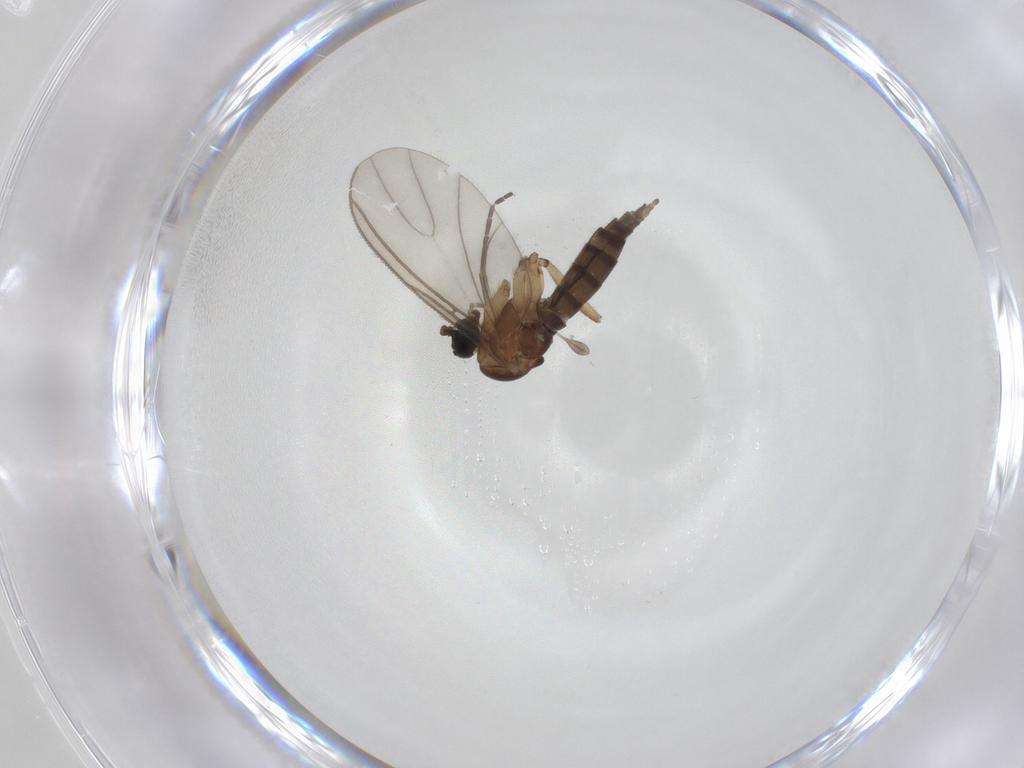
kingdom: Animalia
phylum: Arthropoda
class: Insecta
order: Diptera
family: Sciaridae
